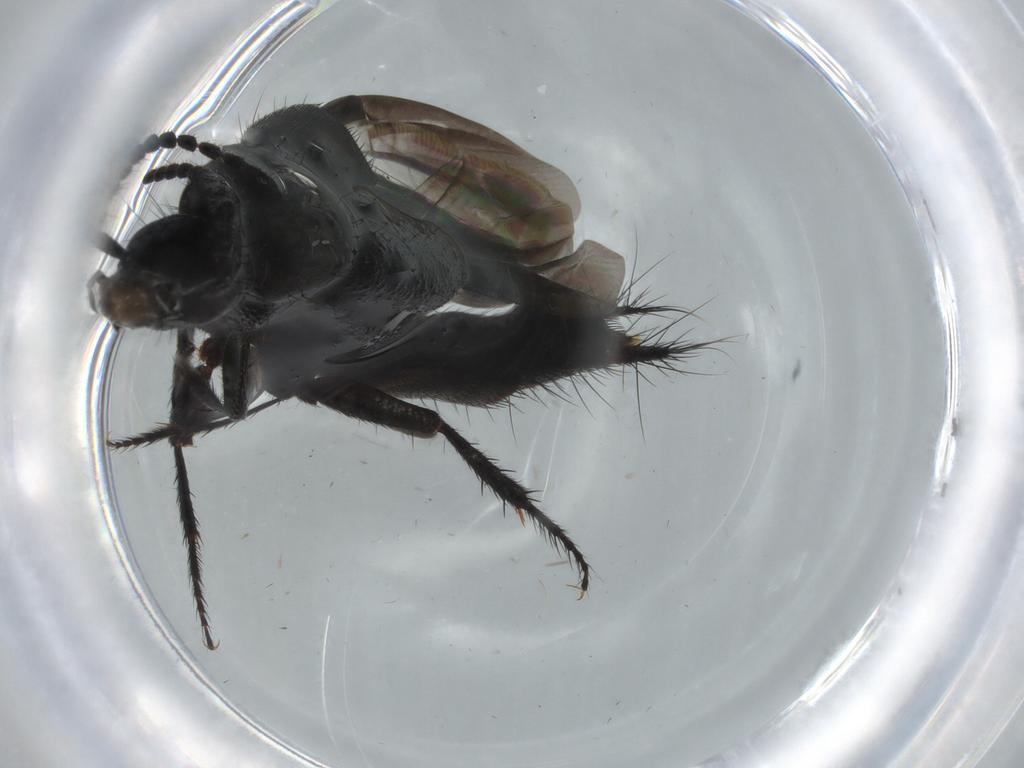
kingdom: Animalia
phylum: Arthropoda
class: Insecta
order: Coleoptera
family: Staphylinidae
